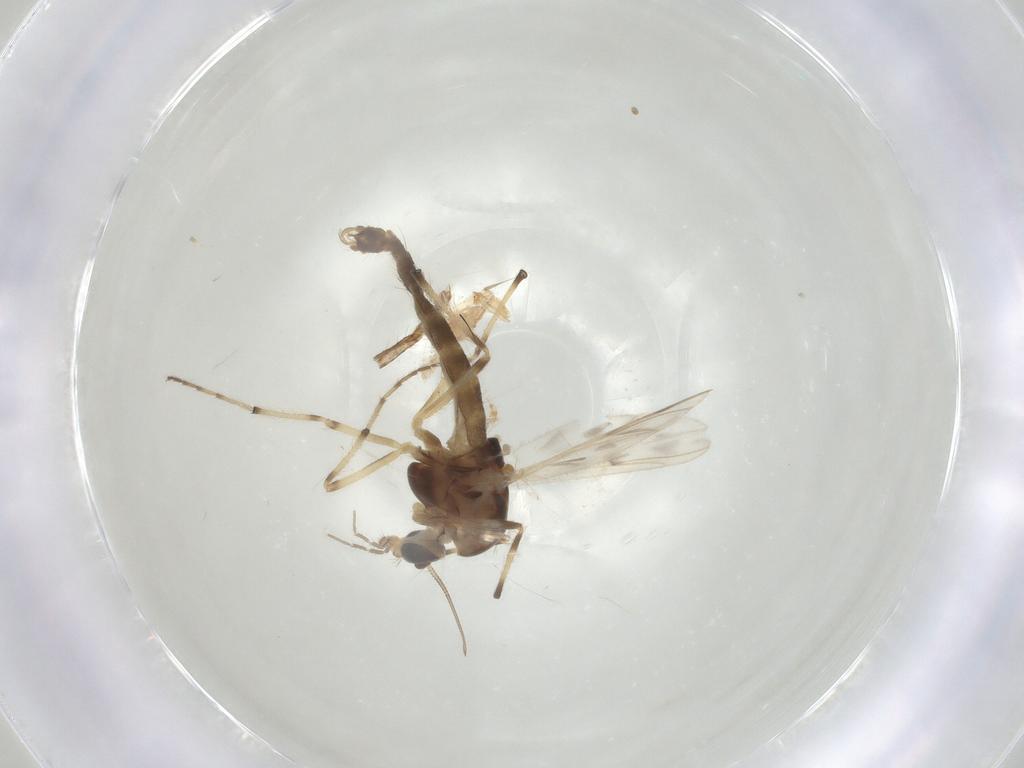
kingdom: Animalia
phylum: Arthropoda
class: Insecta
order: Diptera
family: Chironomidae
